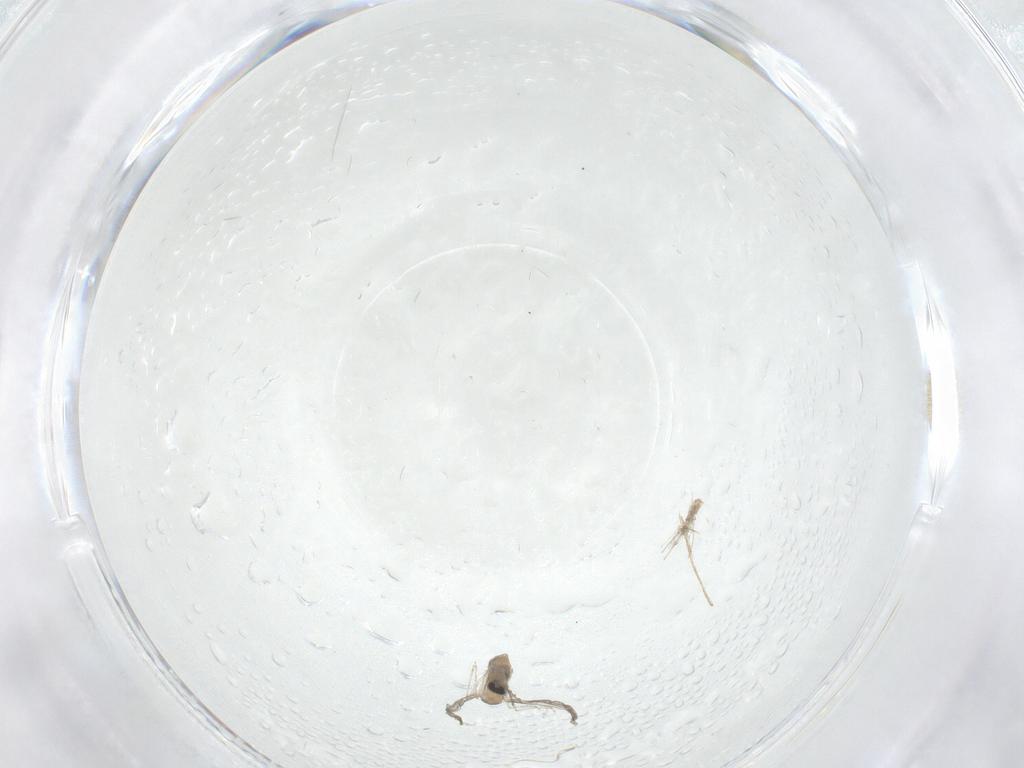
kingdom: Animalia
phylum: Arthropoda
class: Insecta
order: Diptera
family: Cecidomyiidae
